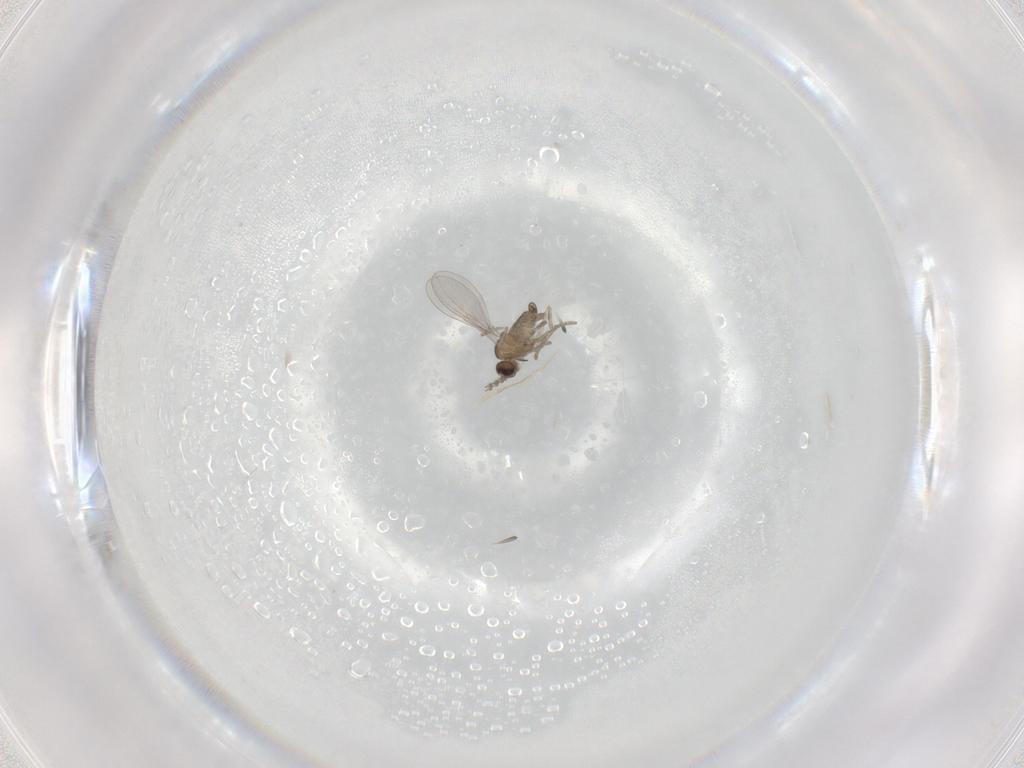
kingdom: Animalia
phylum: Arthropoda
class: Insecta
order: Diptera
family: Cecidomyiidae
